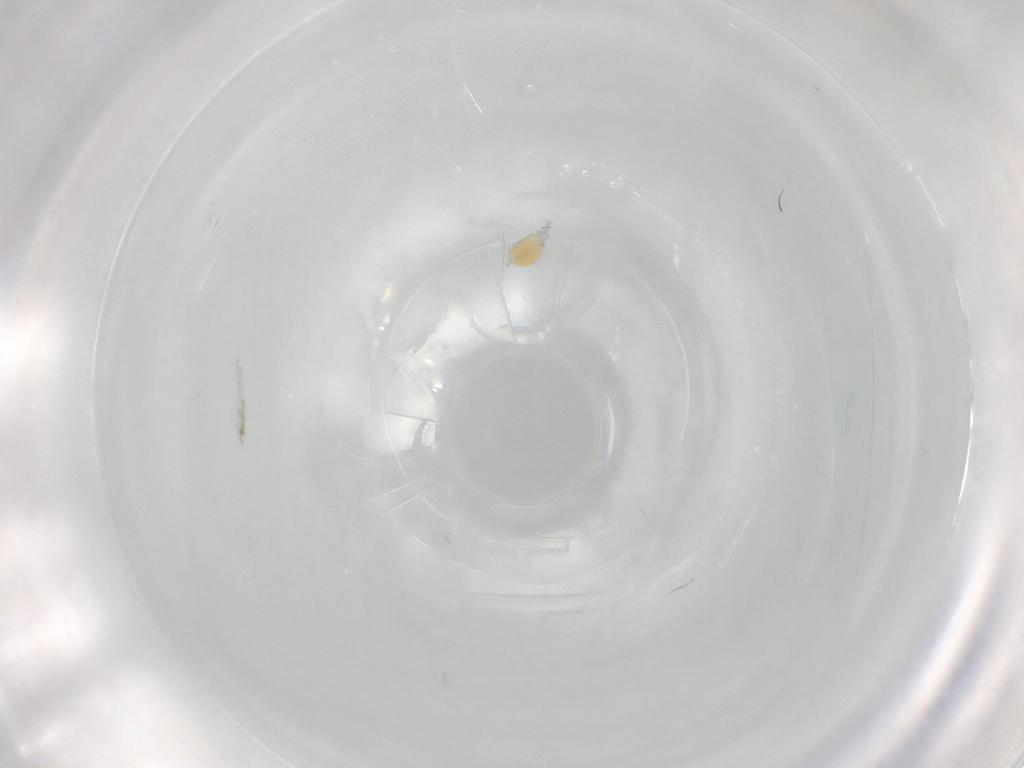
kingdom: Animalia
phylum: Arthropoda
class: Arachnida
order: Trombidiformes
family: Limnesiidae
